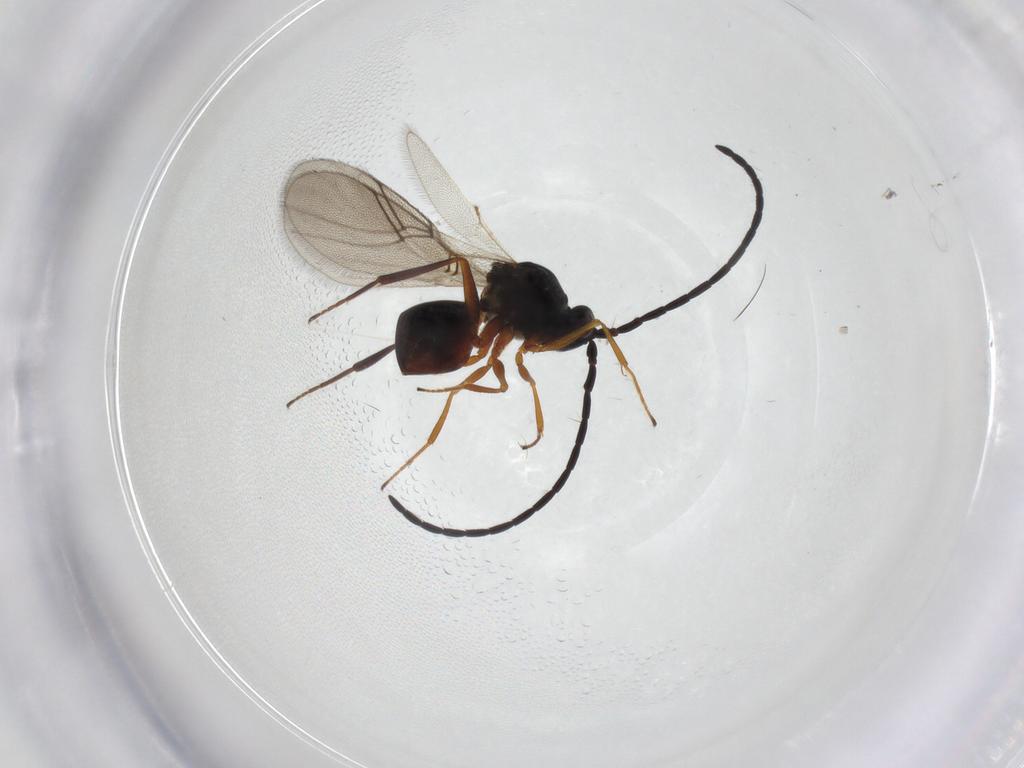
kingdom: Animalia
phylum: Arthropoda
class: Insecta
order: Hymenoptera
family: Figitidae
